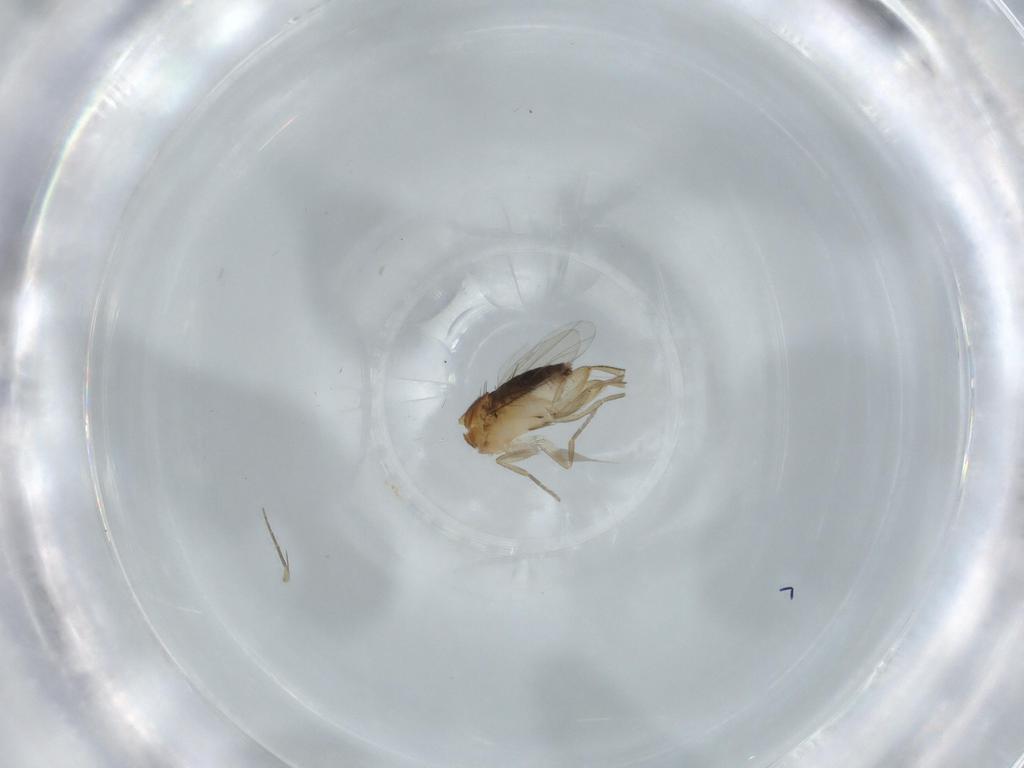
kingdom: Animalia
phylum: Arthropoda
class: Insecta
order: Diptera
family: Phoridae
